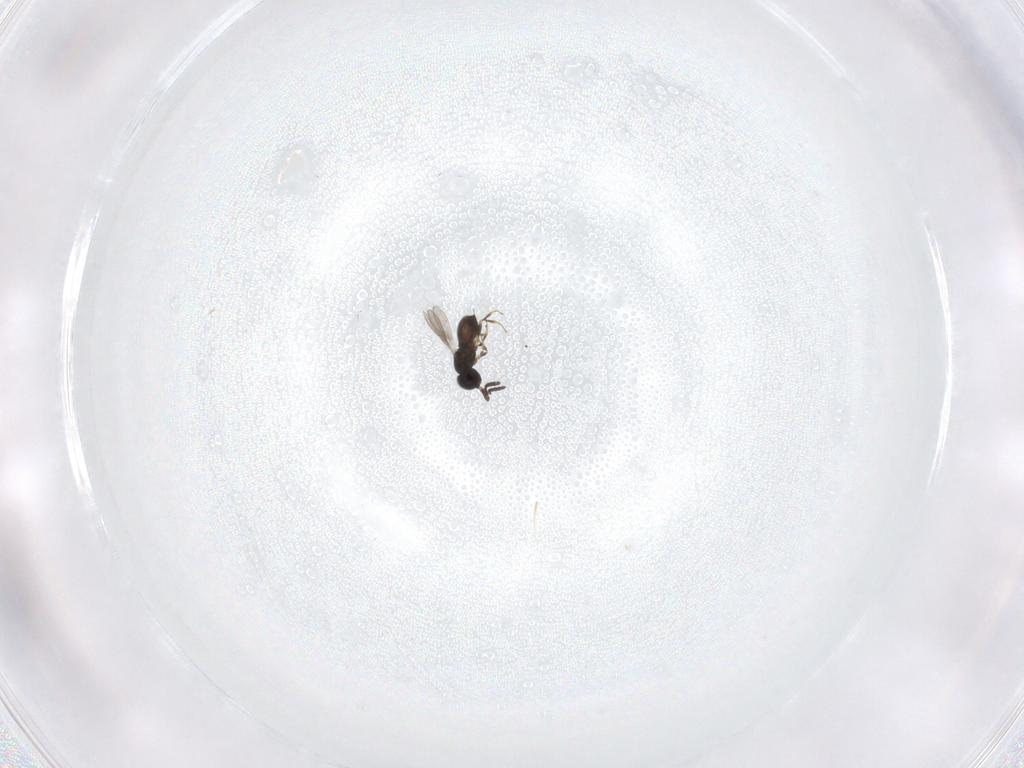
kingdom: Animalia
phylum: Arthropoda
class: Insecta
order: Hymenoptera
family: Scelionidae
